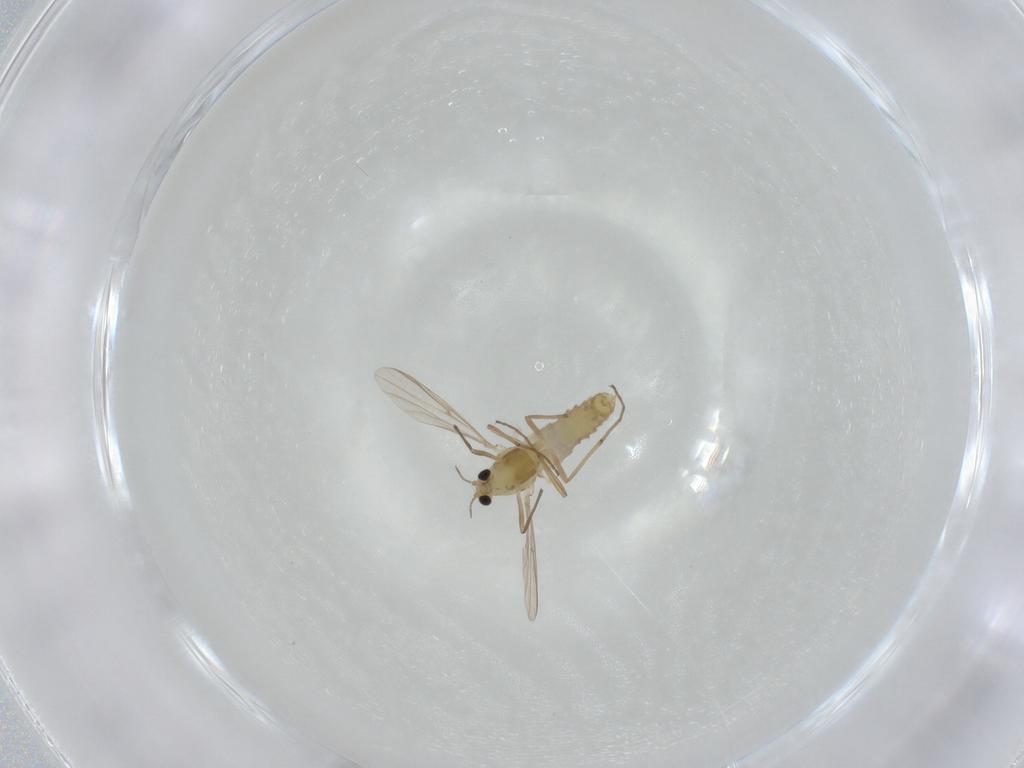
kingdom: Animalia
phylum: Arthropoda
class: Insecta
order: Diptera
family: Chironomidae
